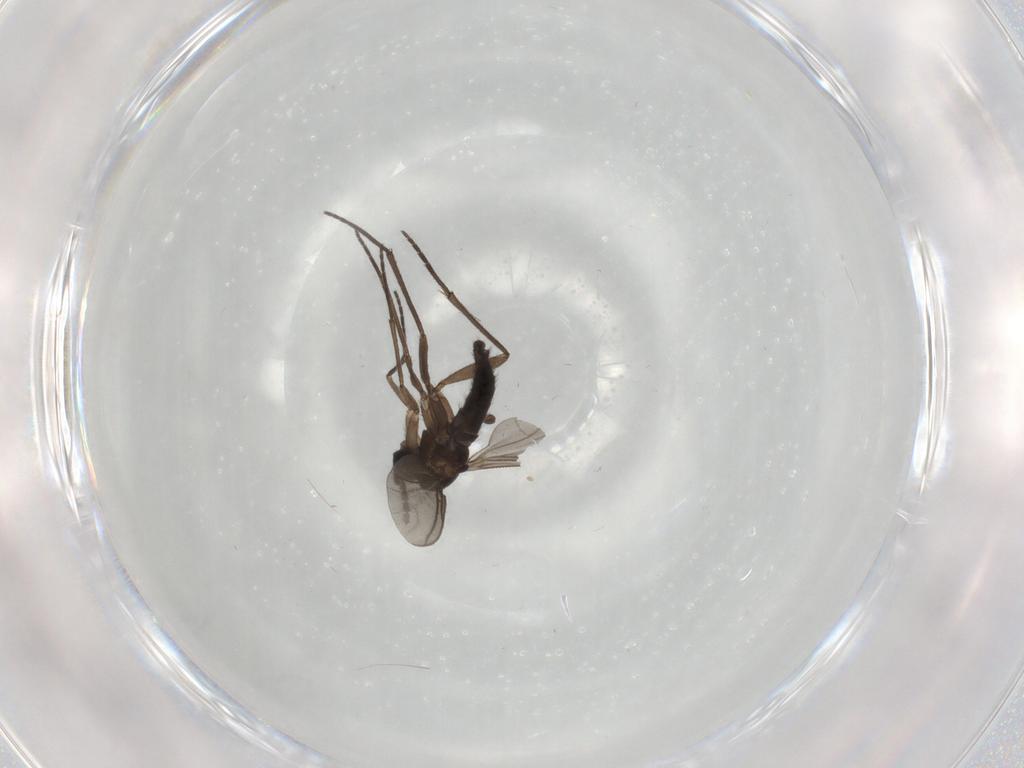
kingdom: Animalia
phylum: Arthropoda
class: Insecta
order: Diptera
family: Sciaridae
